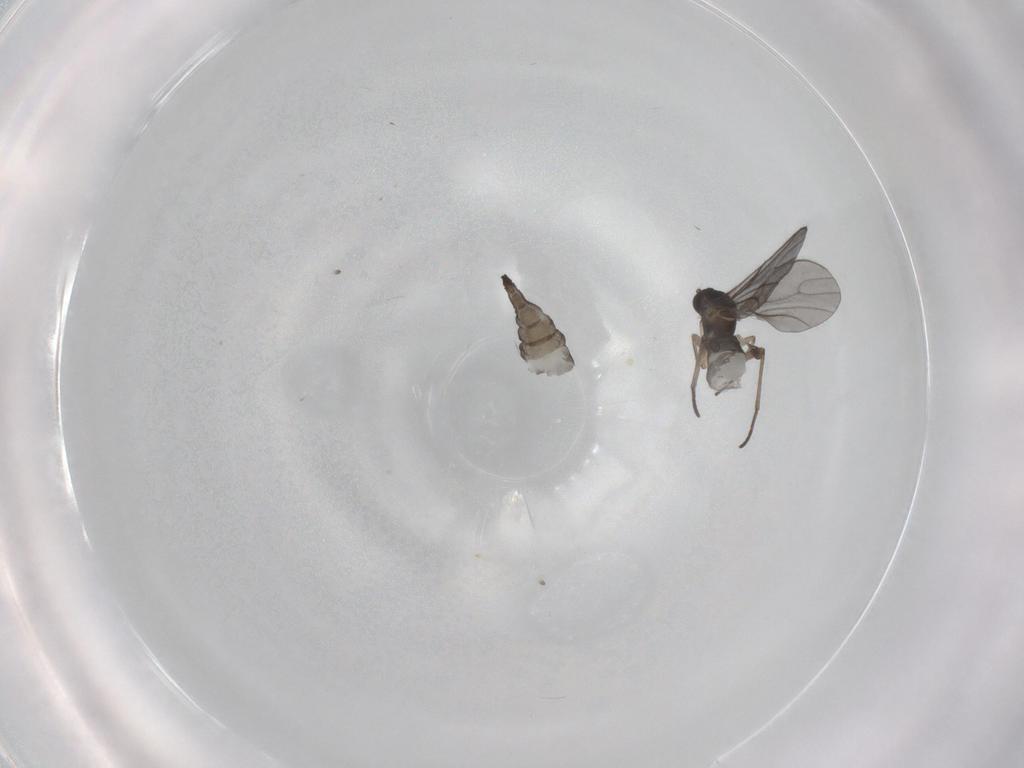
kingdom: Animalia
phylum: Arthropoda
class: Insecta
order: Diptera
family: Sciaridae
